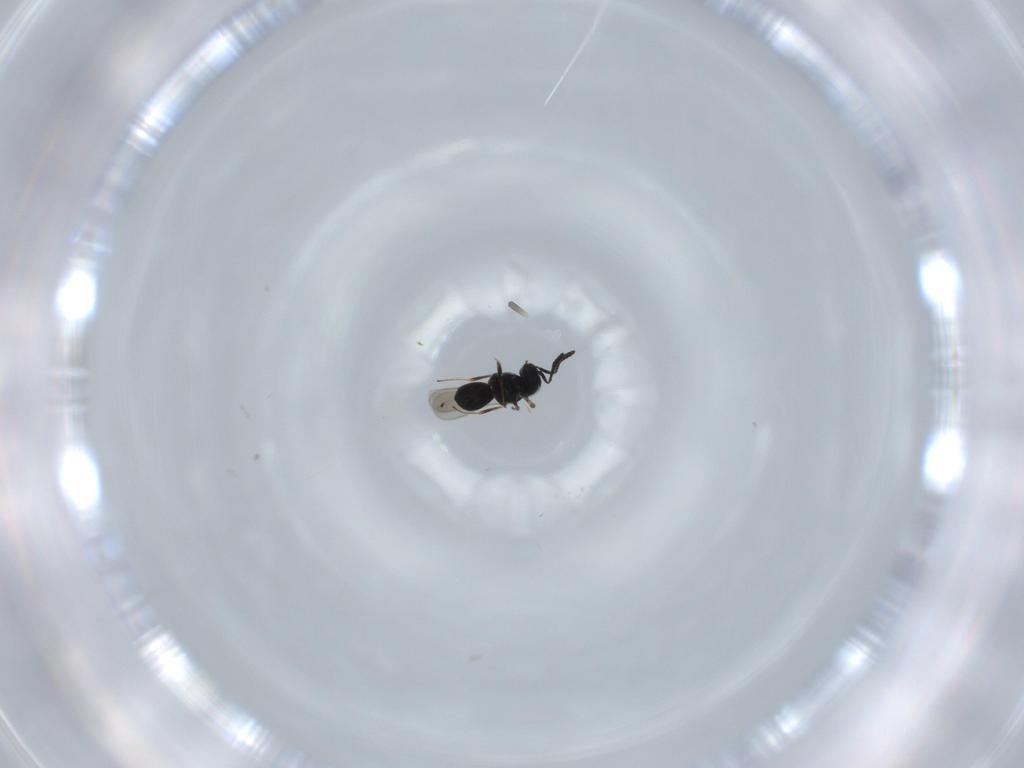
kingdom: Animalia
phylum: Arthropoda
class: Insecta
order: Hymenoptera
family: Scelionidae
